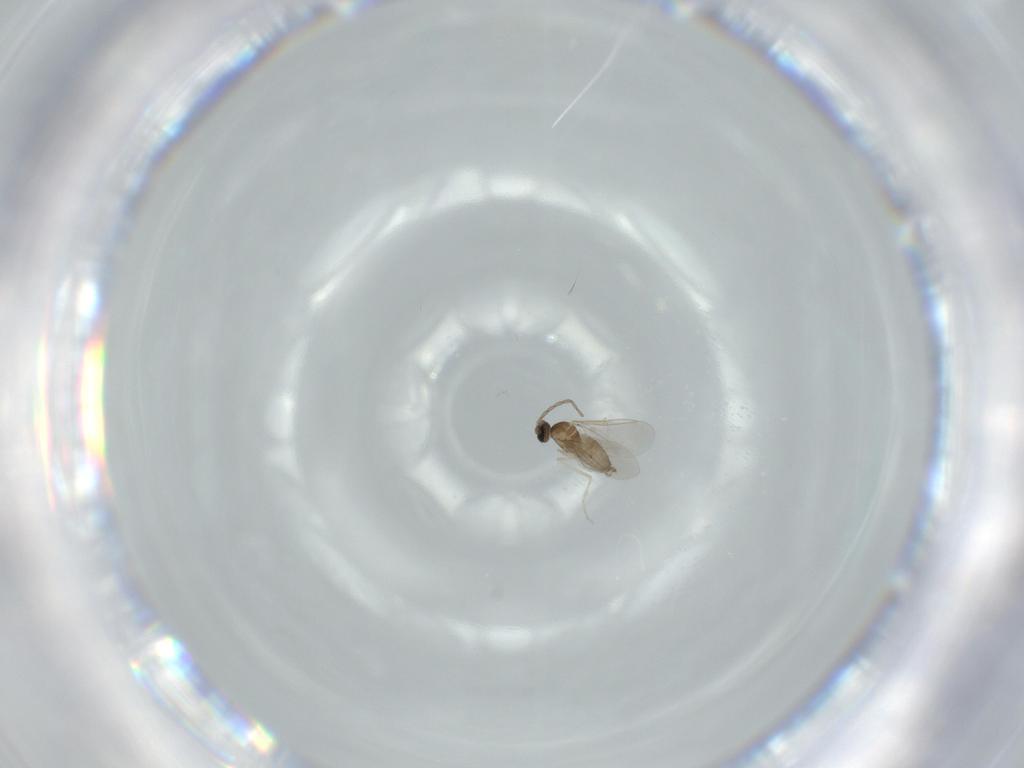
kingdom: Animalia
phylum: Arthropoda
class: Insecta
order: Diptera
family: Cecidomyiidae
